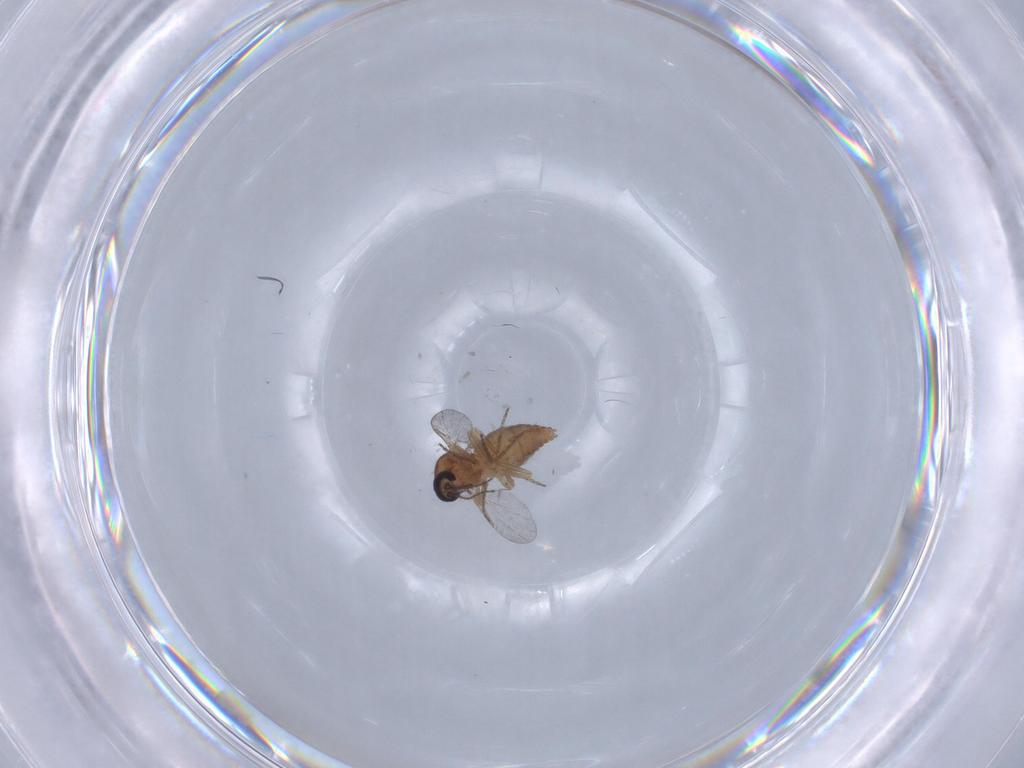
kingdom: Animalia
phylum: Arthropoda
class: Insecta
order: Diptera
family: Ceratopogonidae
